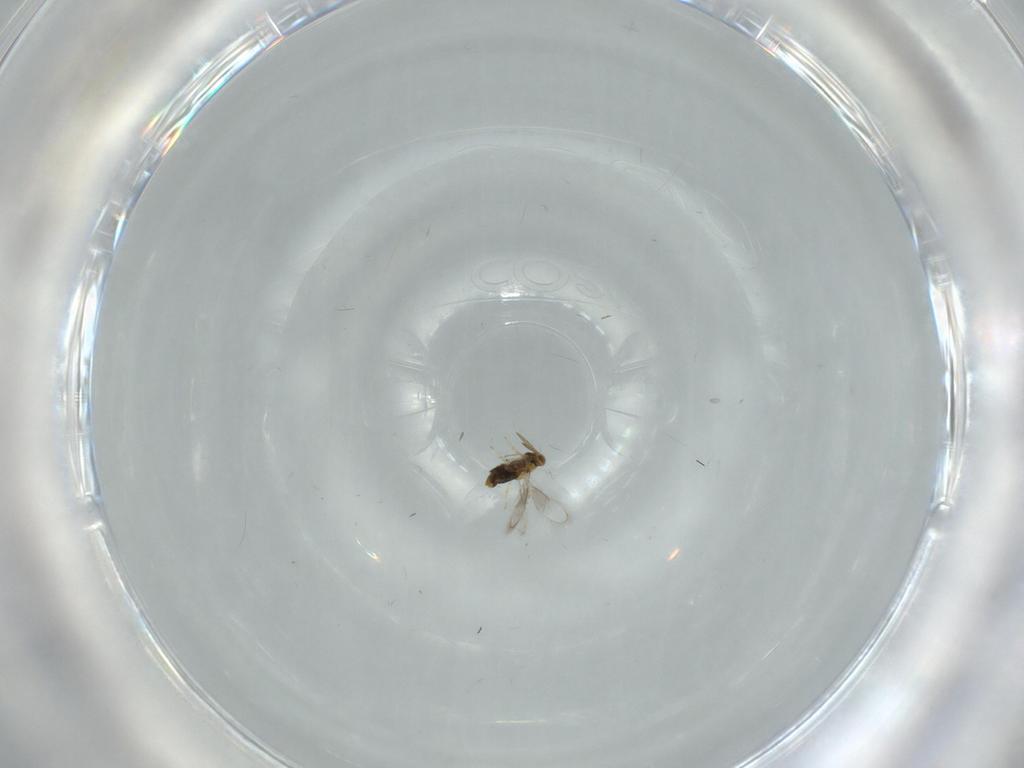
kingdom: Animalia
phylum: Arthropoda
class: Insecta
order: Hymenoptera
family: Aphelinidae
